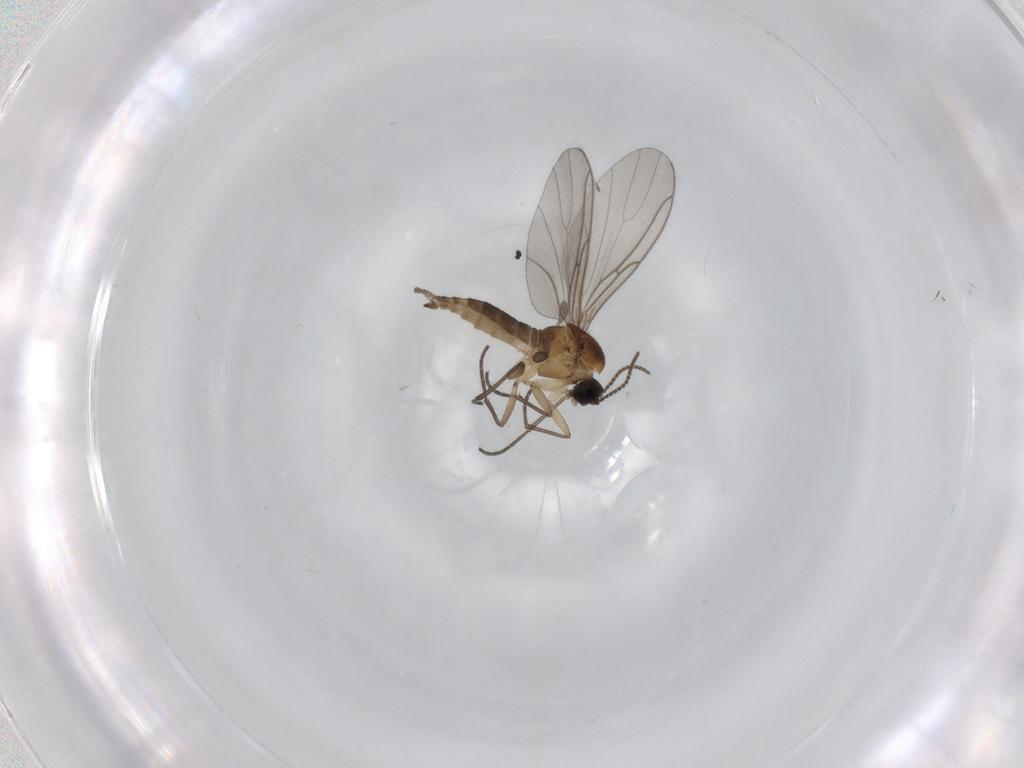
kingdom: Animalia
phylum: Arthropoda
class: Insecta
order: Diptera
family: Sciaridae
